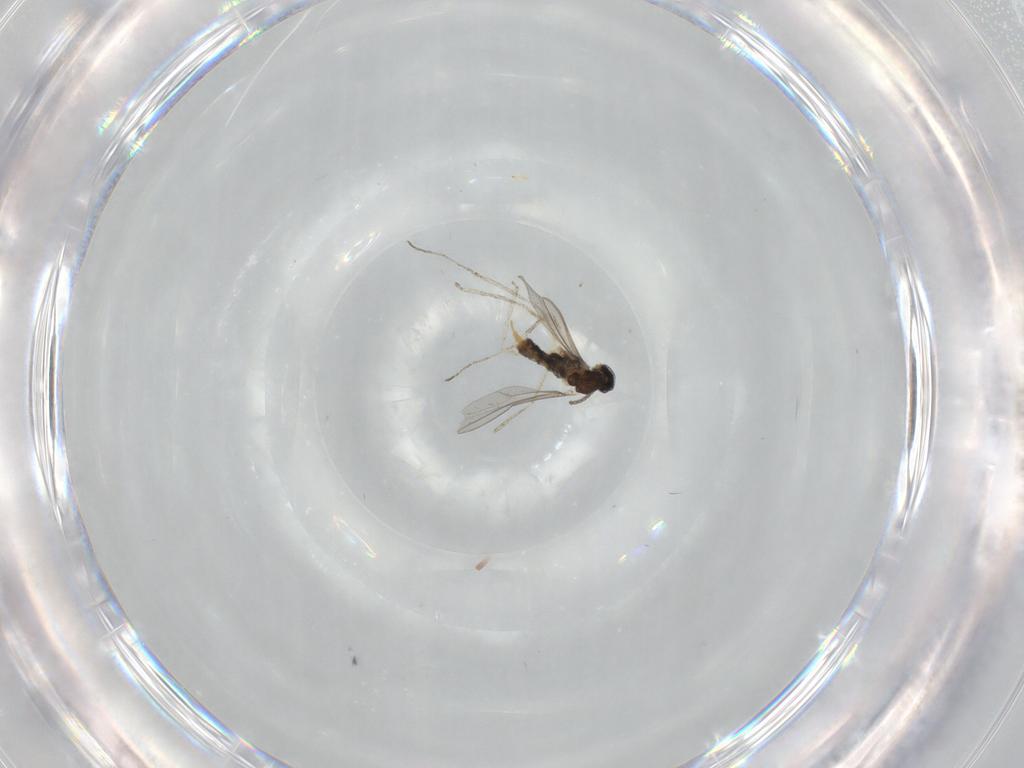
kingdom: Animalia
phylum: Arthropoda
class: Insecta
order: Diptera
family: Cecidomyiidae
